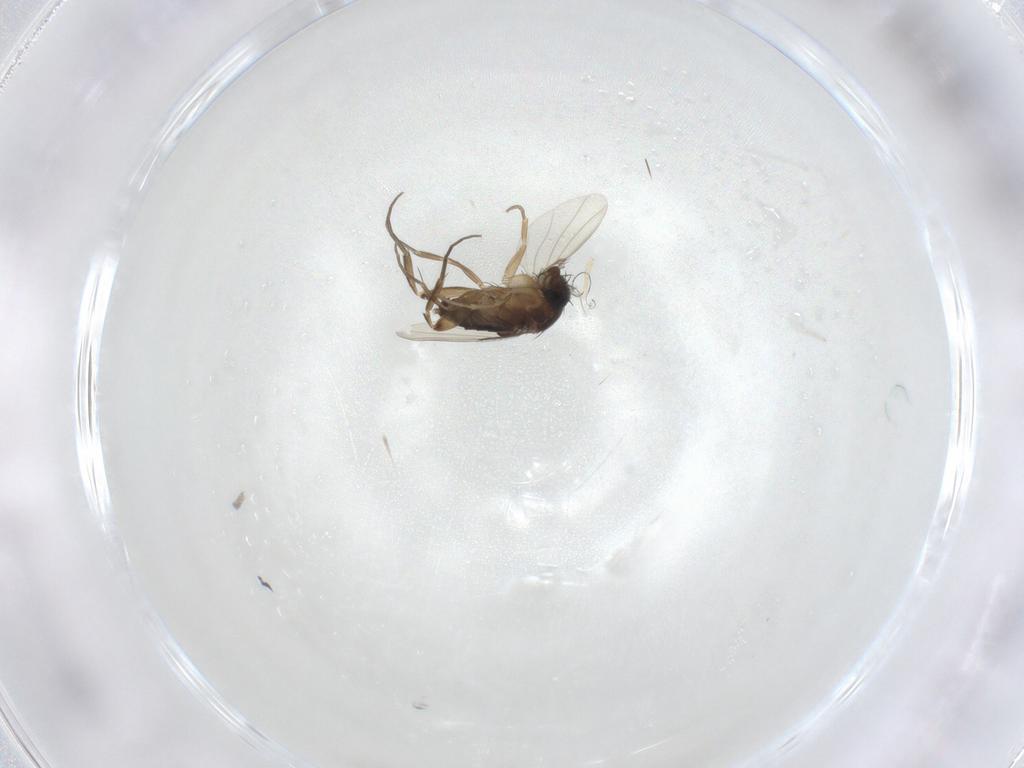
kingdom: Animalia
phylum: Arthropoda
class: Insecta
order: Diptera
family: Phoridae
